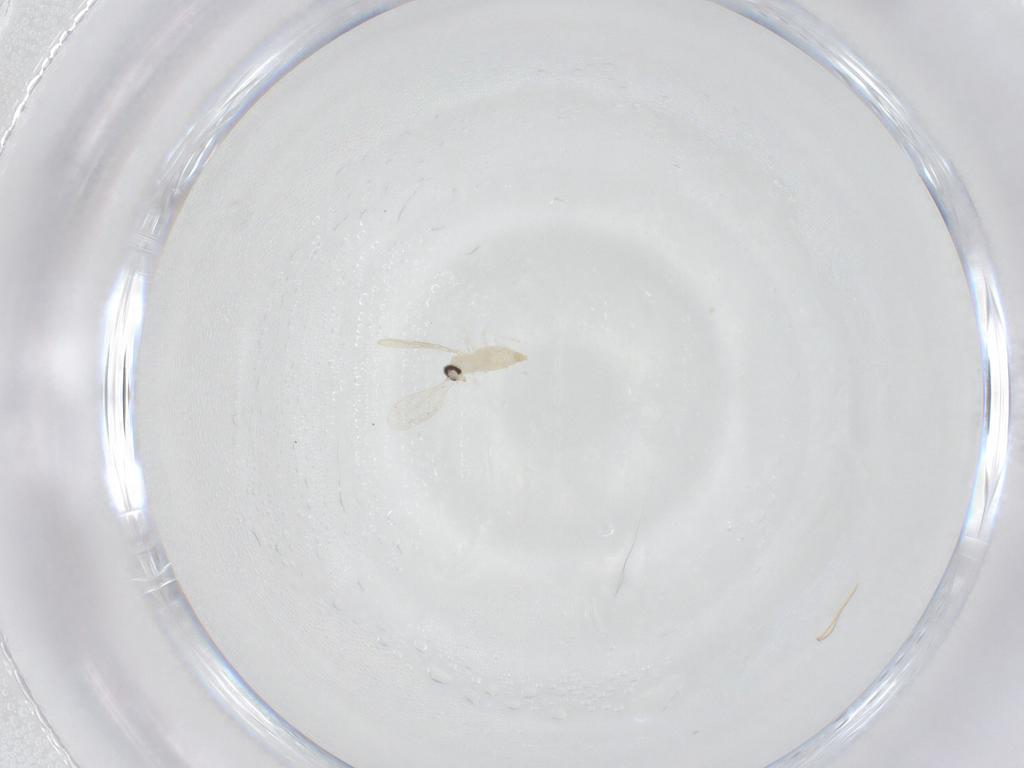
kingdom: Animalia
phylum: Arthropoda
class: Insecta
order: Diptera
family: Cecidomyiidae
